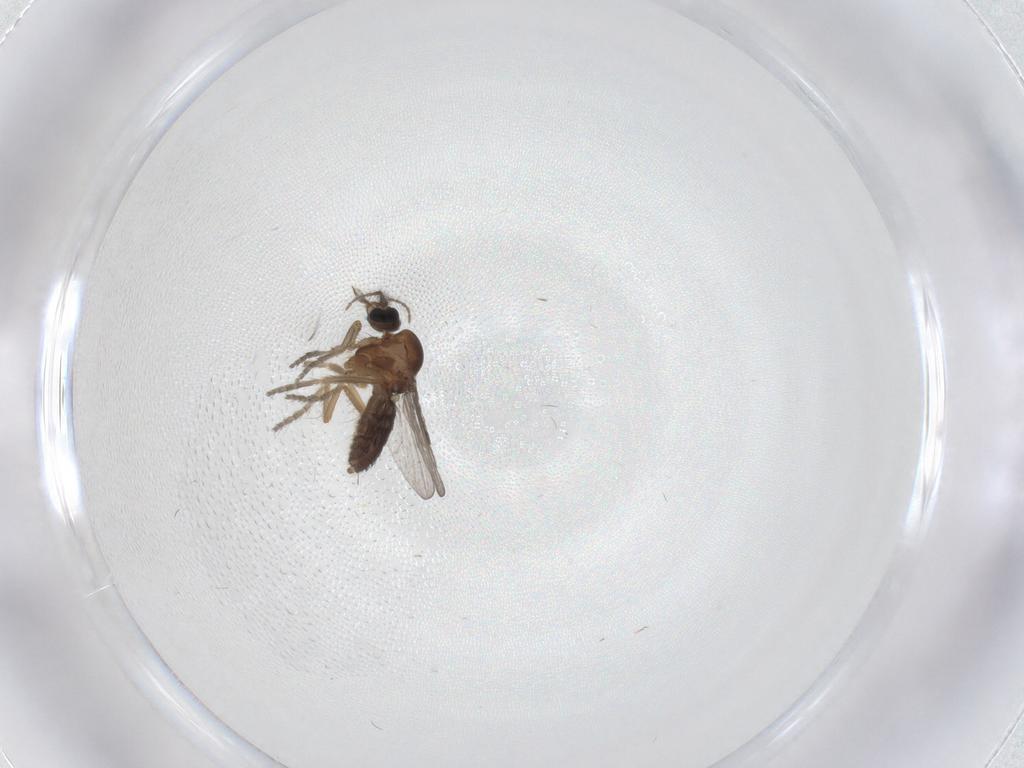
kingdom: Animalia
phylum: Arthropoda
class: Insecta
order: Diptera
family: Ceratopogonidae
